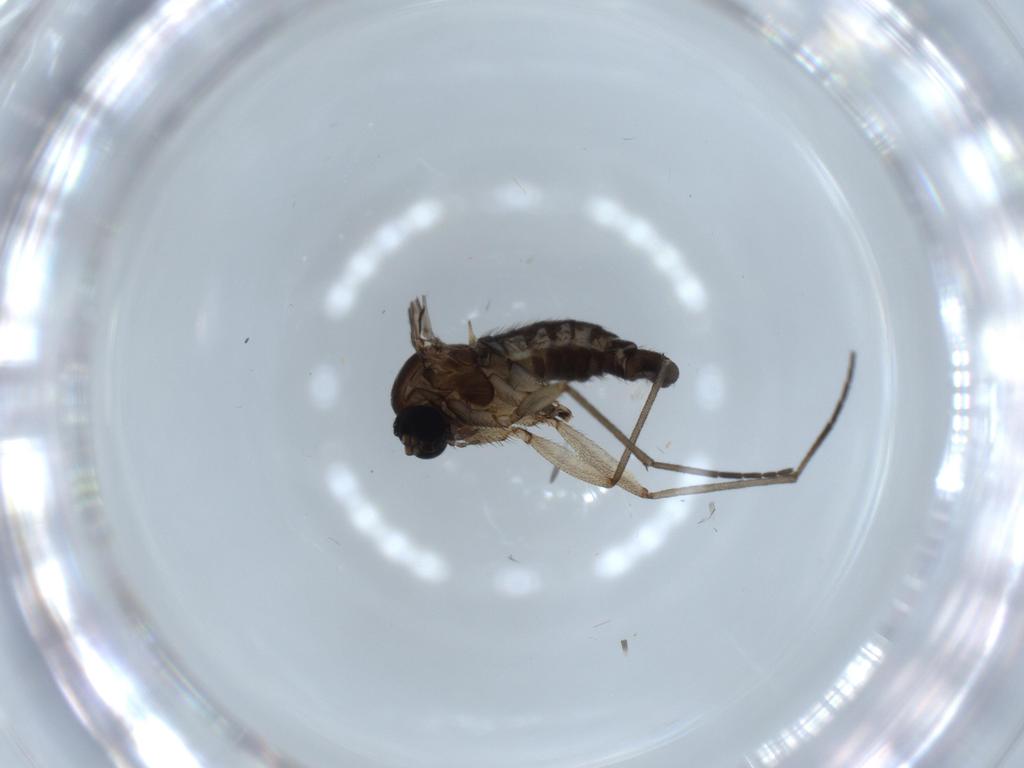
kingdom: Animalia
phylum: Arthropoda
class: Insecta
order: Diptera
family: Sciaridae
